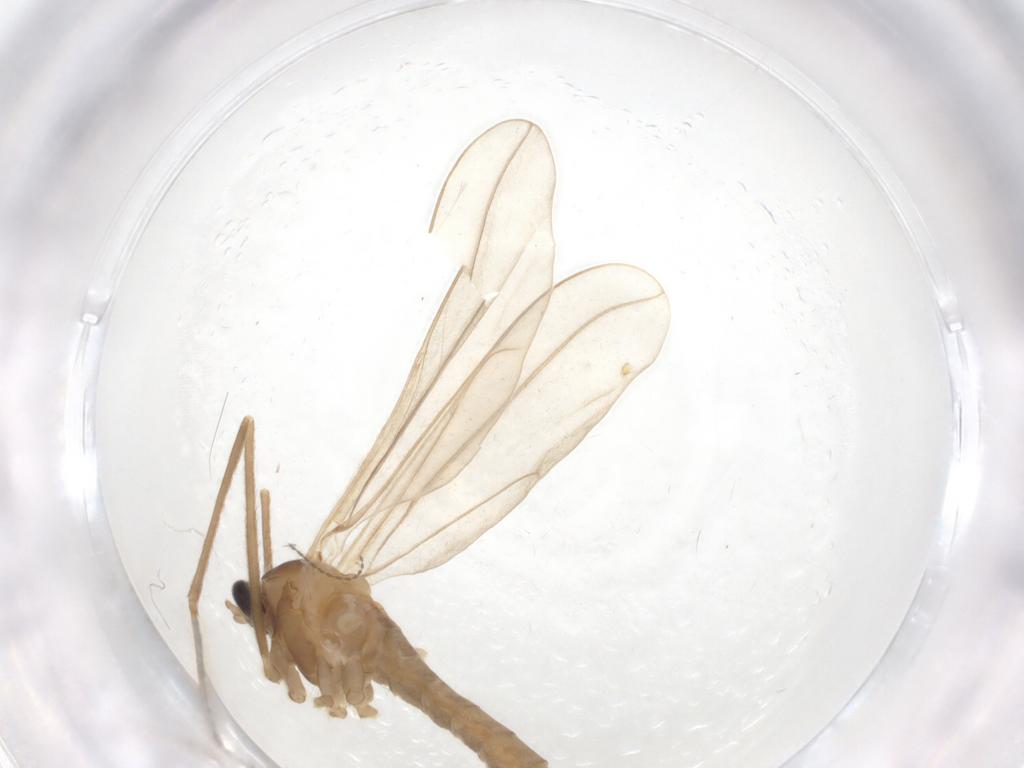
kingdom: Animalia
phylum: Arthropoda
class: Insecta
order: Diptera
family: Cecidomyiidae
